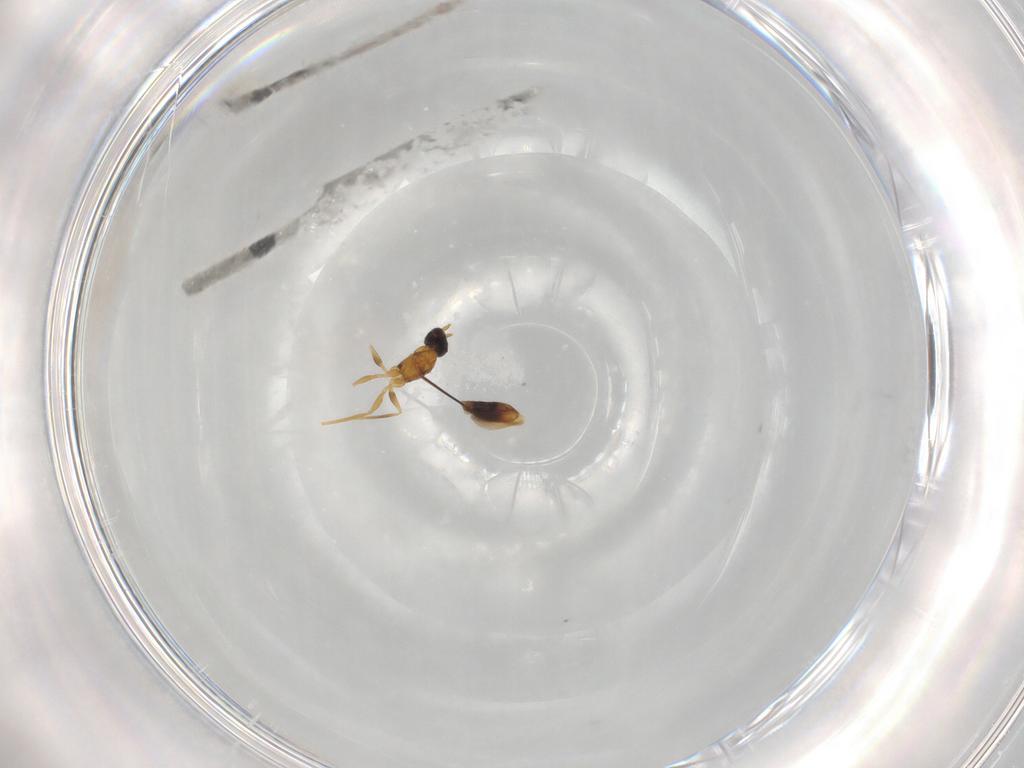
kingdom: Animalia
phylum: Arthropoda
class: Insecta
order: Hymenoptera
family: Mymaridae
